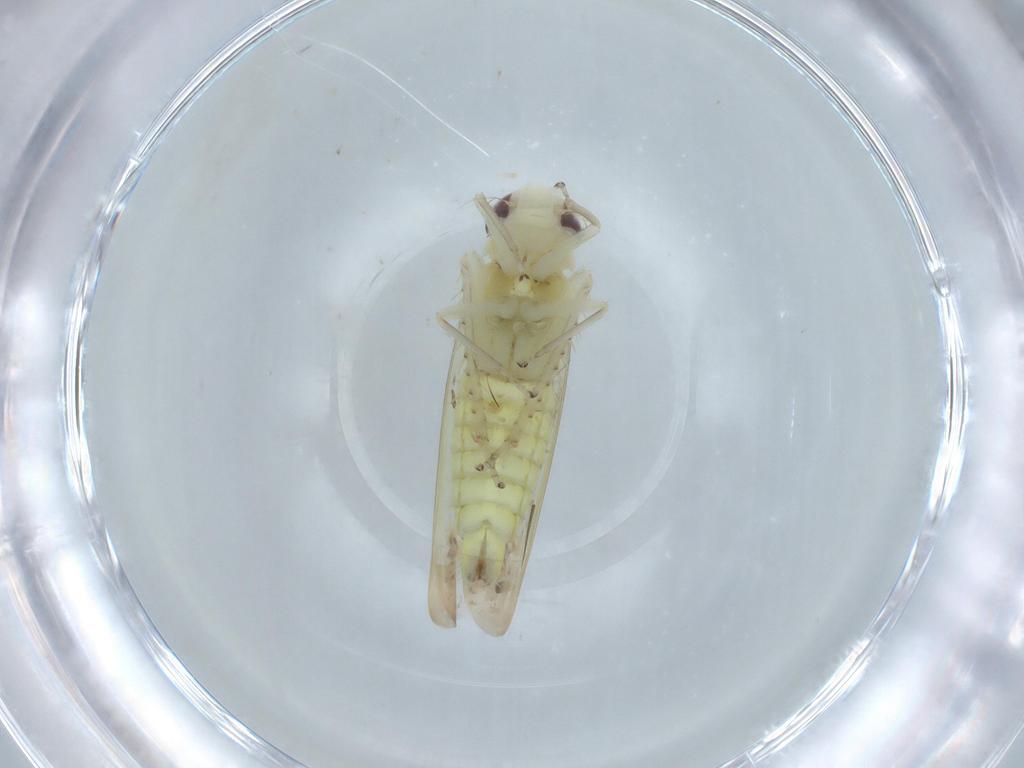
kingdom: Animalia
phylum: Arthropoda
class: Insecta
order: Hemiptera
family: Cicadellidae
